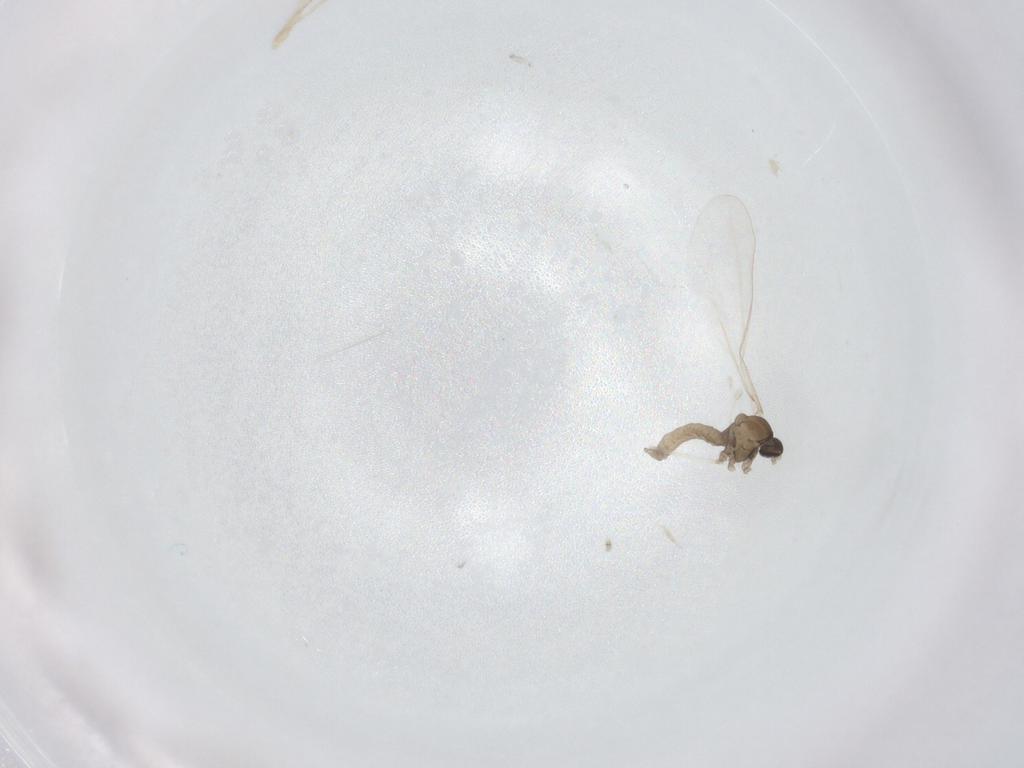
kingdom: Animalia
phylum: Arthropoda
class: Insecta
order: Diptera
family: Cecidomyiidae
